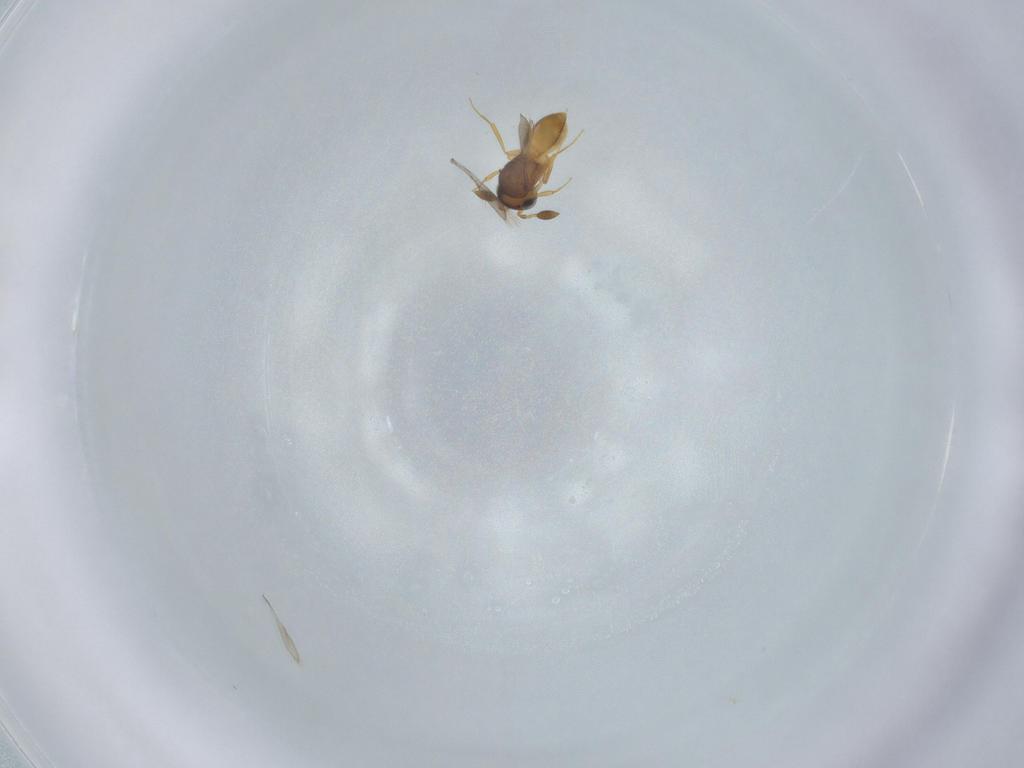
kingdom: Animalia
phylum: Arthropoda
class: Insecta
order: Hymenoptera
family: Scelionidae
